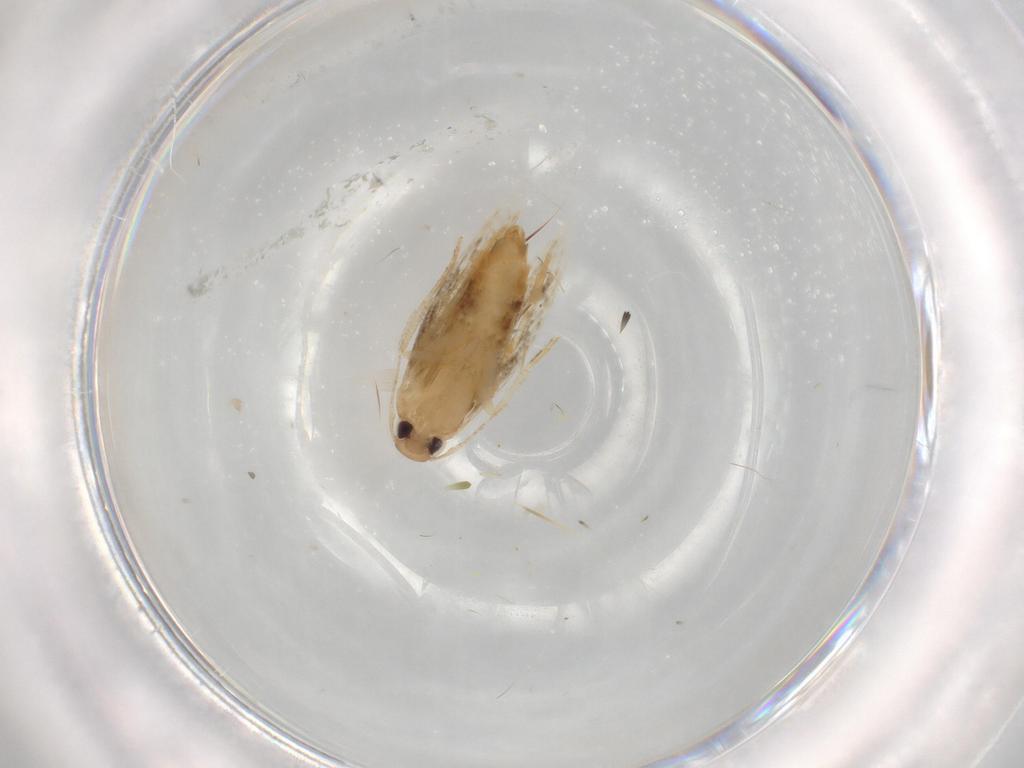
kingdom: Animalia
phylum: Arthropoda
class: Insecta
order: Lepidoptera
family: Cosmopterigidae
